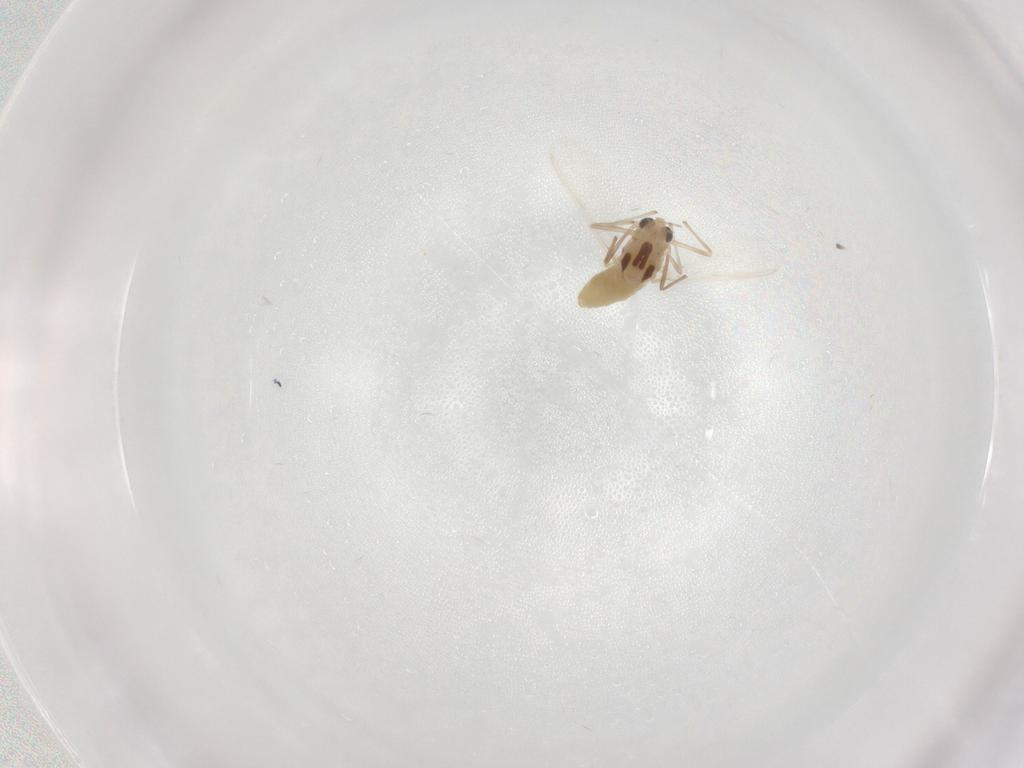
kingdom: Animalia
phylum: Arthropoda
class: Insecta
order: Diptera
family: Chironomidae
